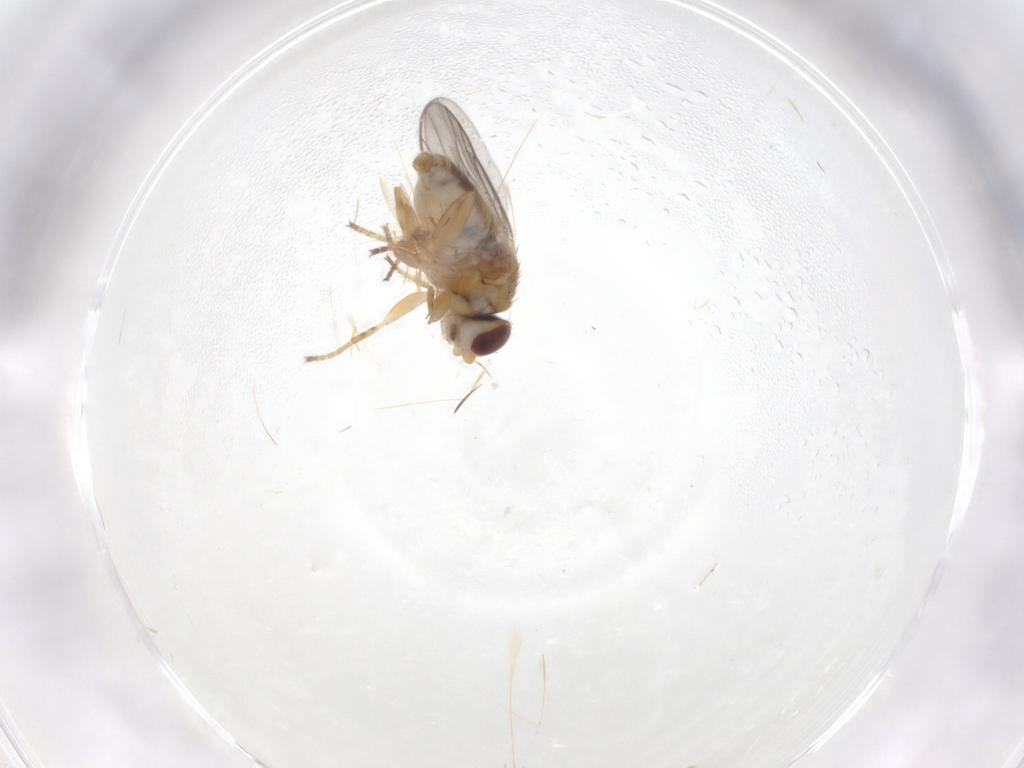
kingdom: Animalia
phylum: Arthropoda
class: Insecta
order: Diptera
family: Chloropidae
